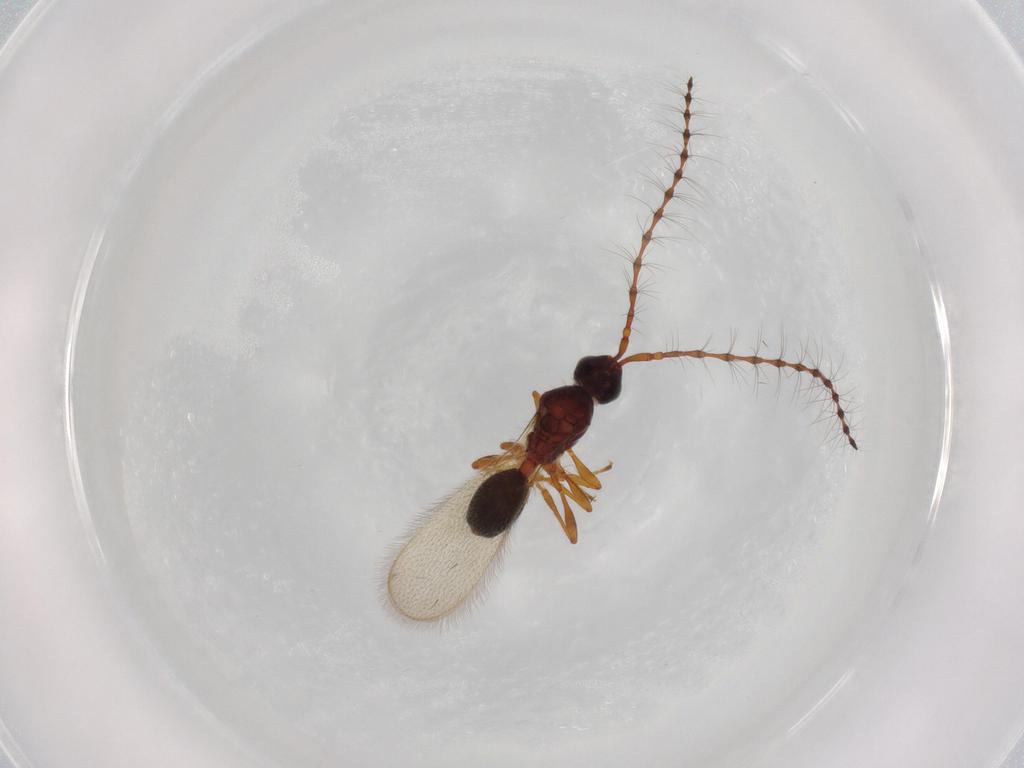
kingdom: Animalia
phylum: Arthropoda
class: Insecta
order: Hymenoptera
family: Diapriidae
